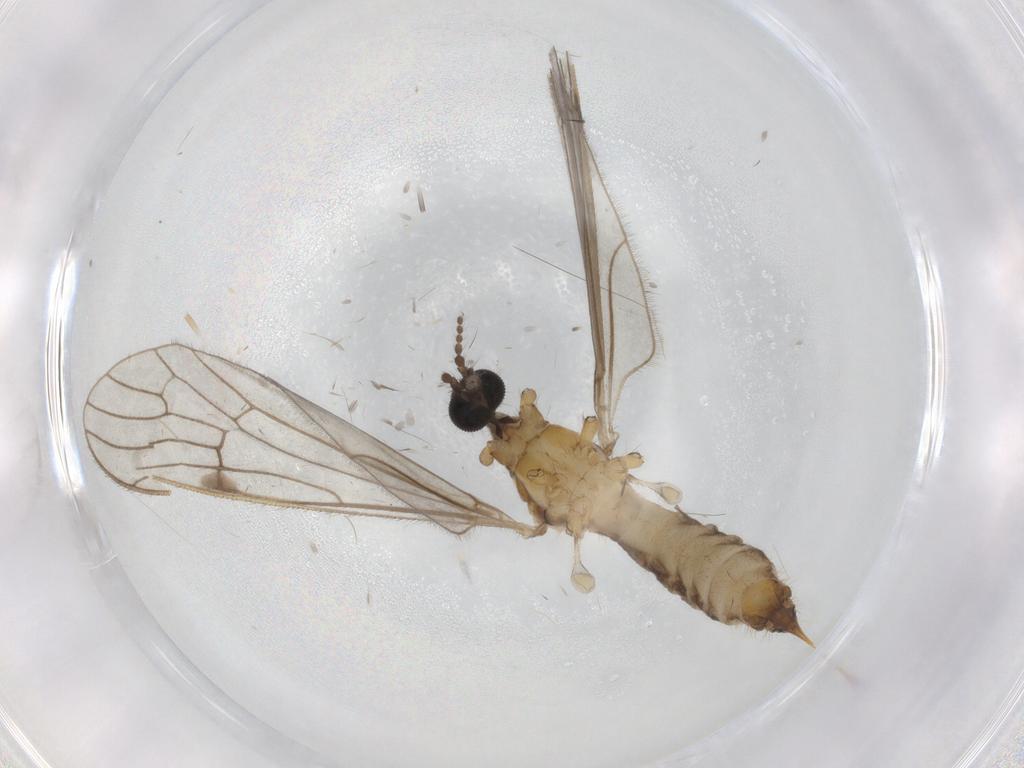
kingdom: Animalia
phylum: Arthropoda
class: Insecta
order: Diptera
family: Limoniidae
